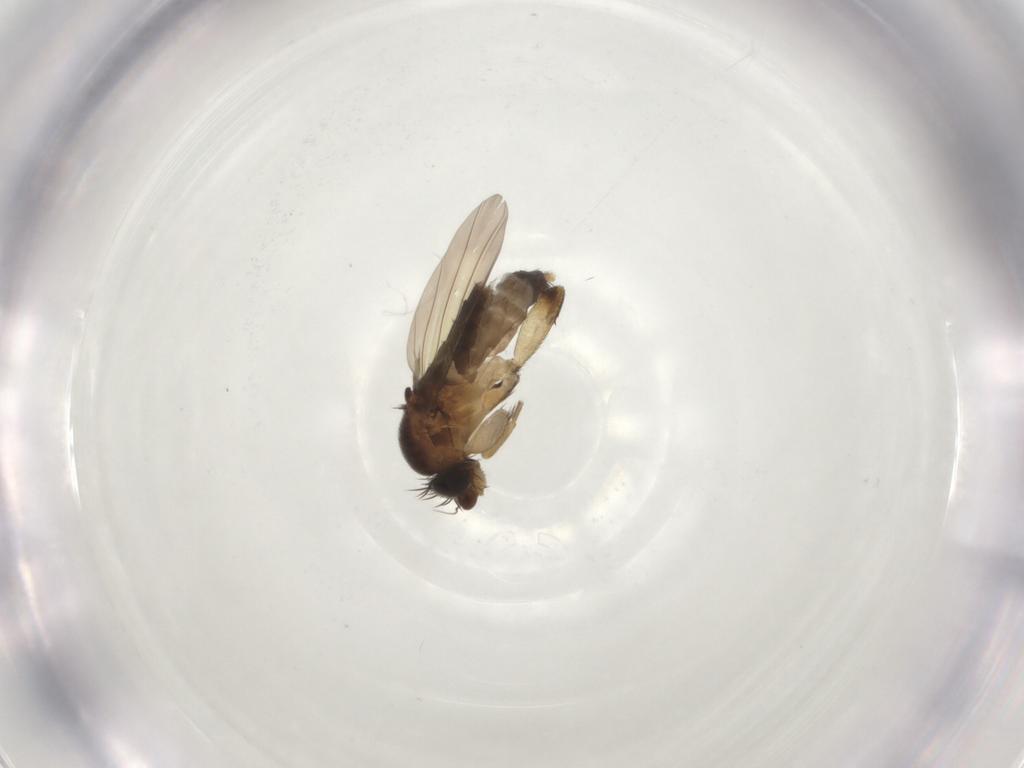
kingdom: Animalia
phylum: Arthropoda
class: Insecta
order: Diptera
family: Phoridae
